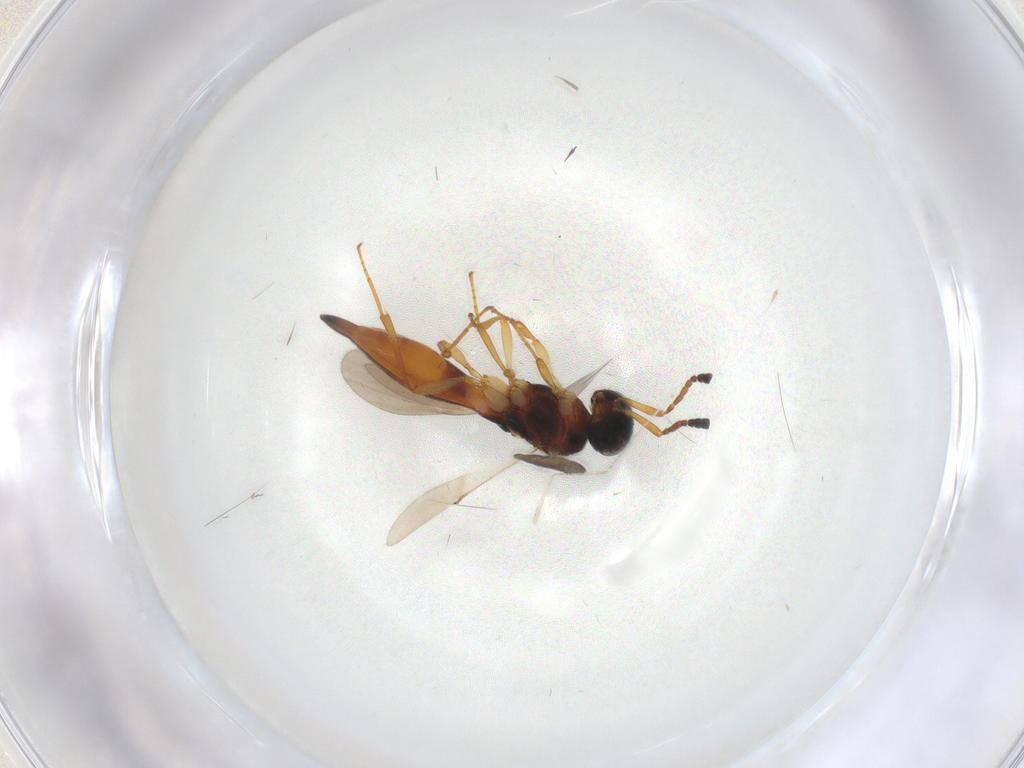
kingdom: Animalia
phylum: Arthropoda
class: Insecta
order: Hymenoptera
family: Scelionidae
